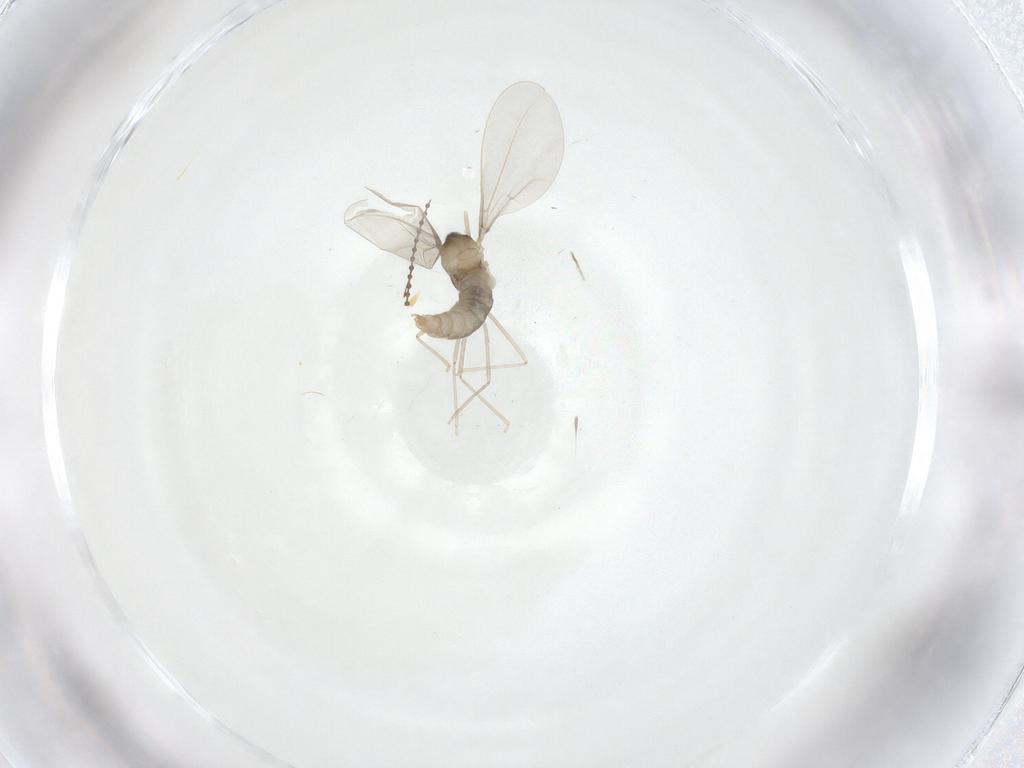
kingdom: Animalia
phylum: Arthropoda
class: Insecta
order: Diptera
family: Cecidomyiidae
